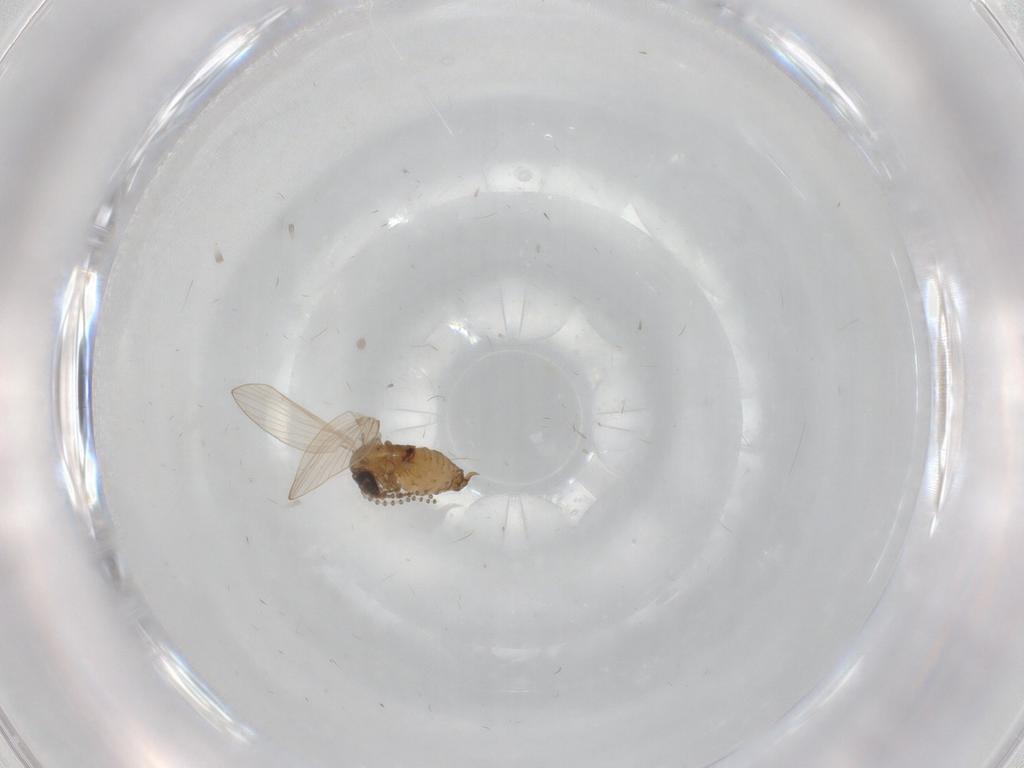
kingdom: Animalia
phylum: Arthropoda
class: Insecta
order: Diptera
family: Psychodidae
